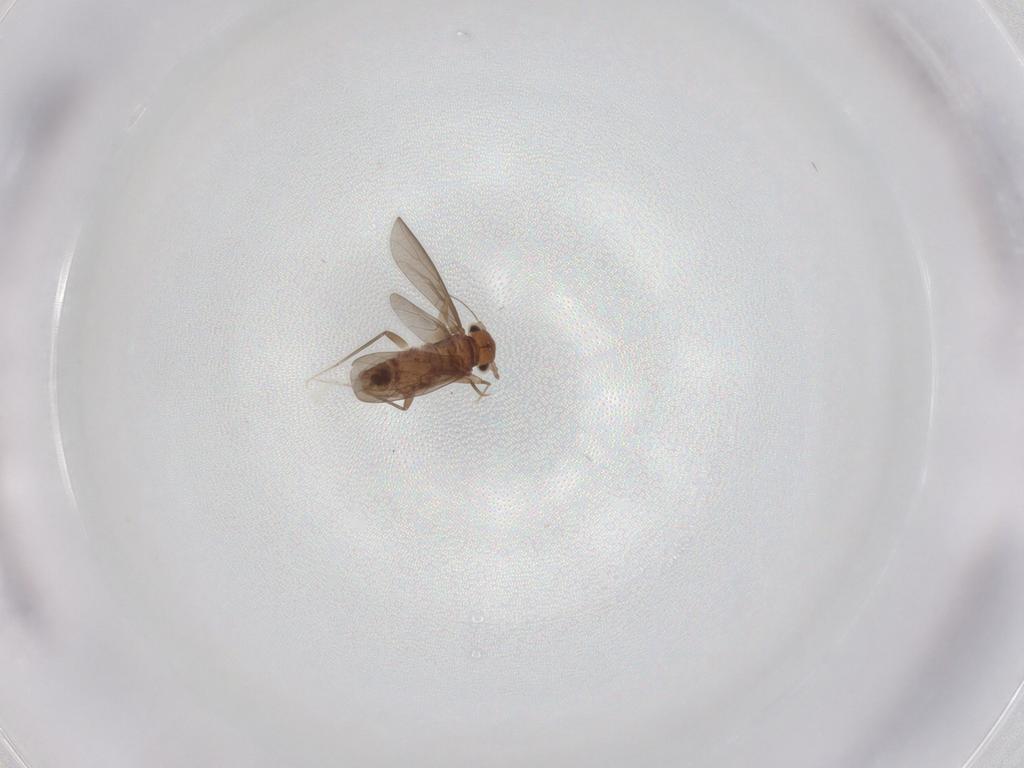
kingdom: Animalia
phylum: Arthropoda
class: Insecta
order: Psocodea
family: Lepidopsocidae
